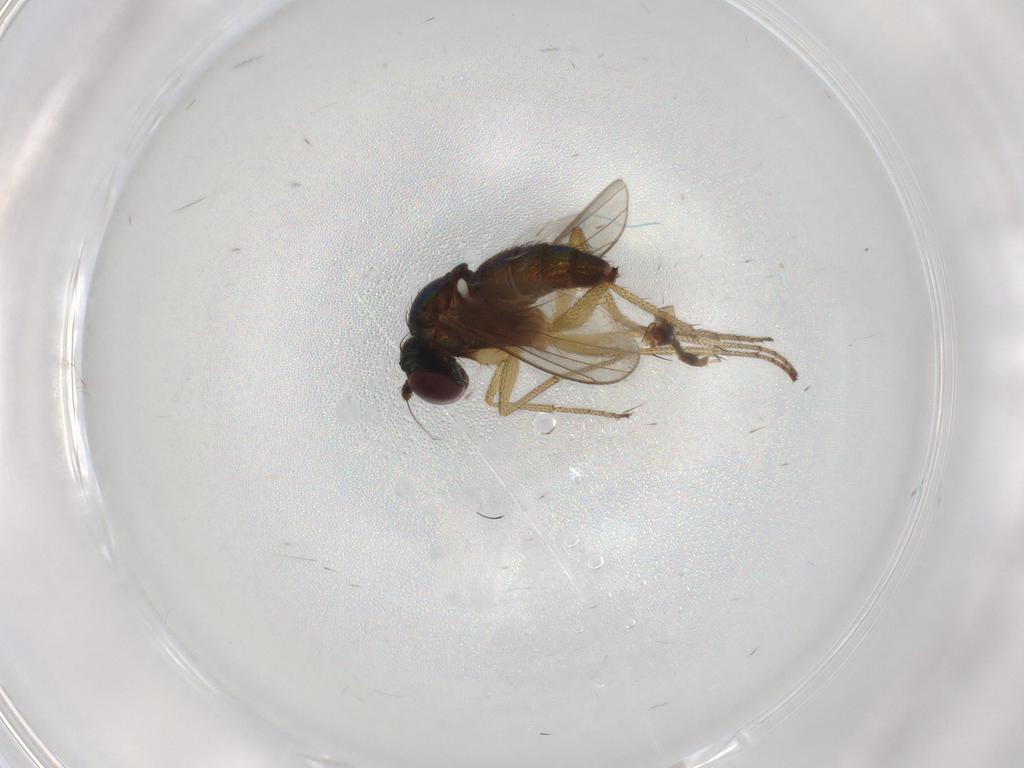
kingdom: Animalia
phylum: Arthropoda
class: Insecta
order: Diptera
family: Chironomidae
